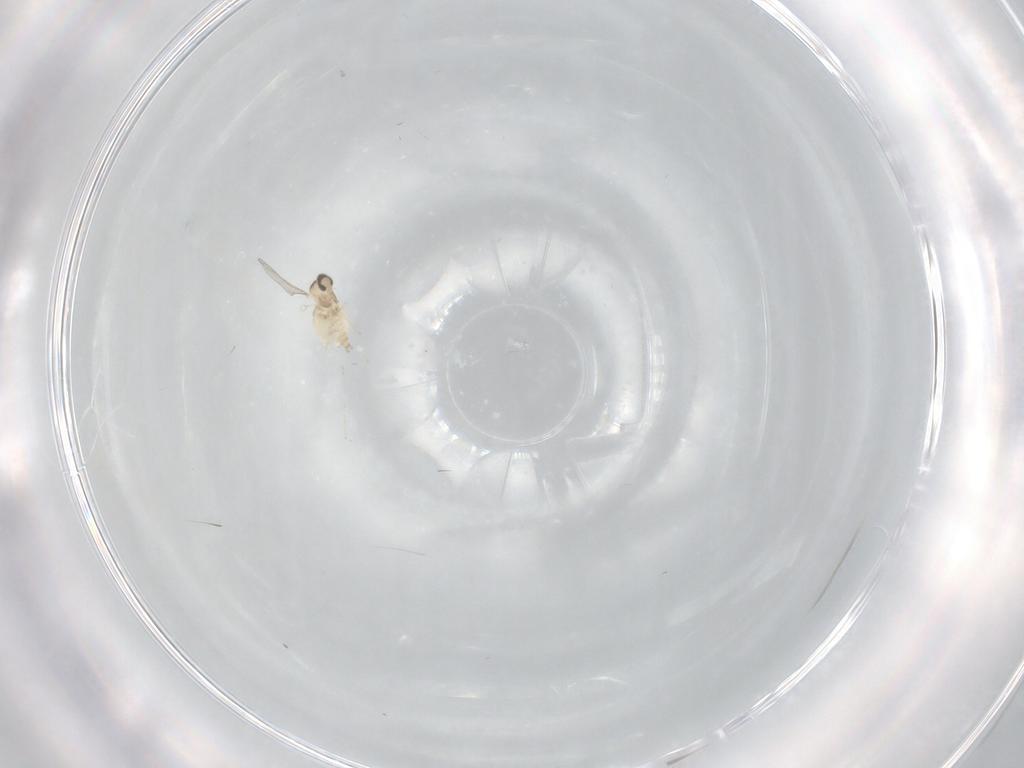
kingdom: Animalia
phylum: Arthropoda
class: Insecta
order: Diptera
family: Cecidomyiidae
